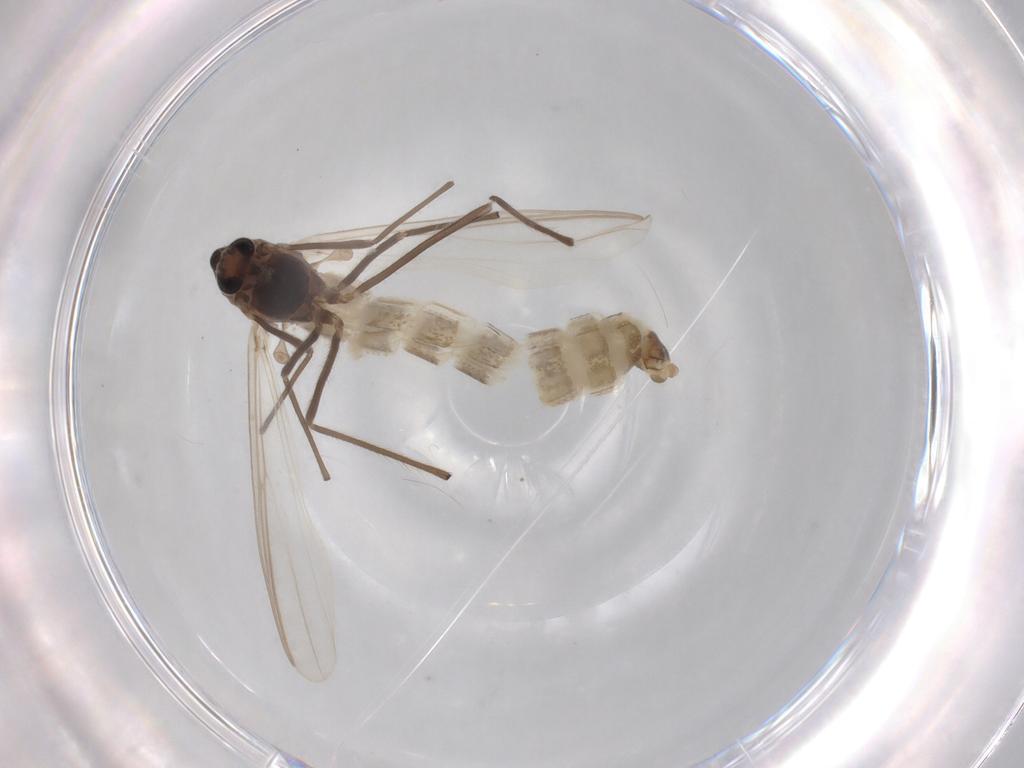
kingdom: Animalia
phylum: Arthropoda
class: Insecta
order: Diptera
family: Chironomidae
